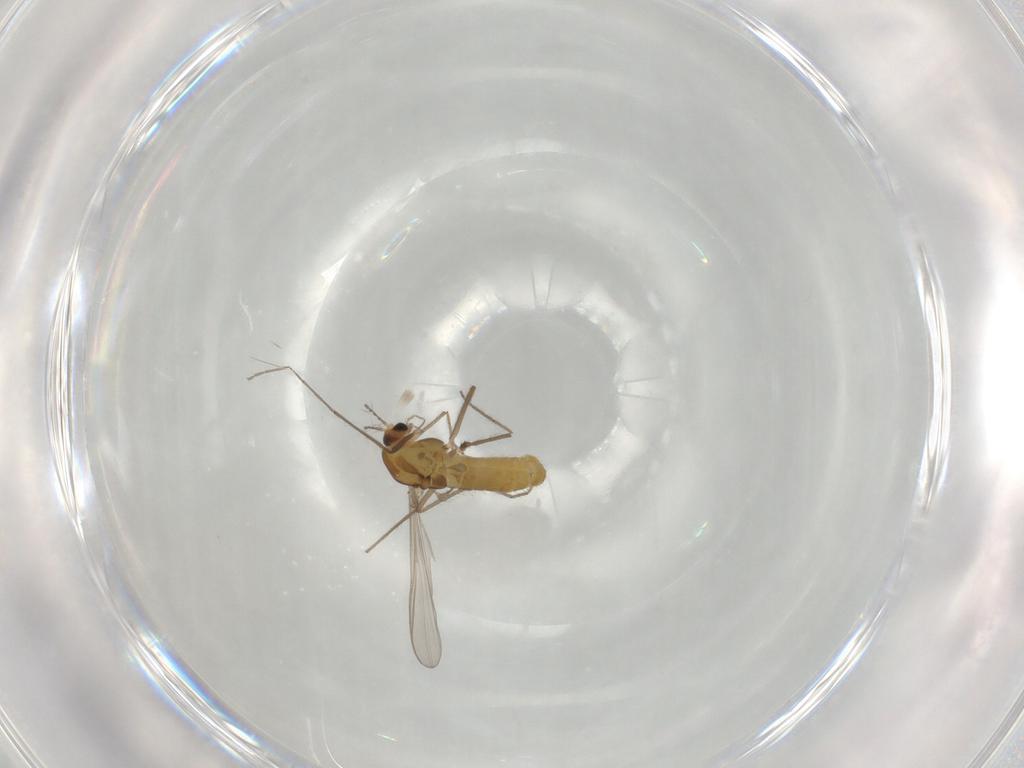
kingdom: Animalia
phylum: Arthropoda
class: Insecta
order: Diptera
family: Chironomidae
